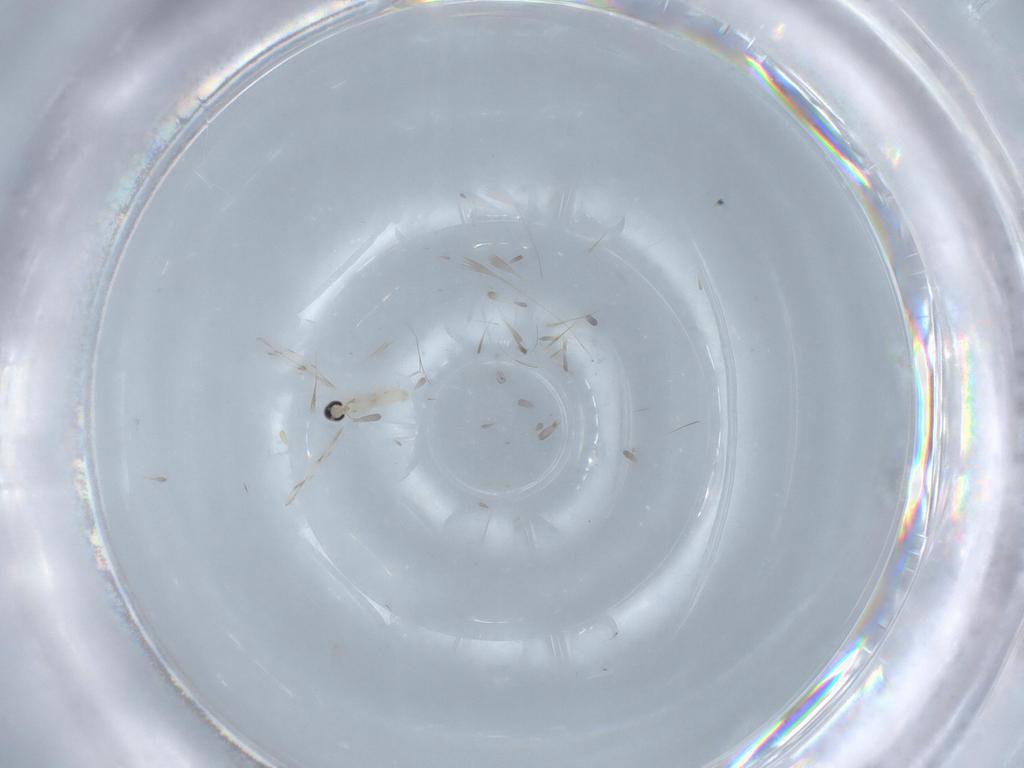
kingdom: Animalia
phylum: Arthropoda
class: Insecta
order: Diptera
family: Cecidomyiidae
